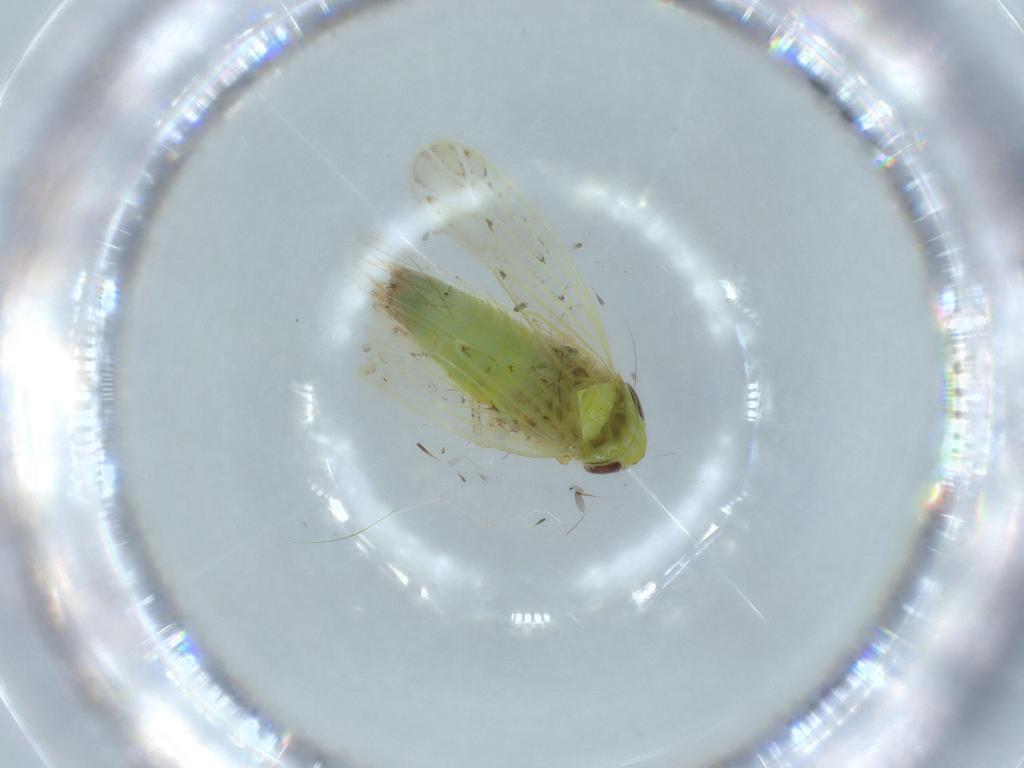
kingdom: Animalia
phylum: Arthropoda
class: Insecta
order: Hemiptera
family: Cicadellidae
